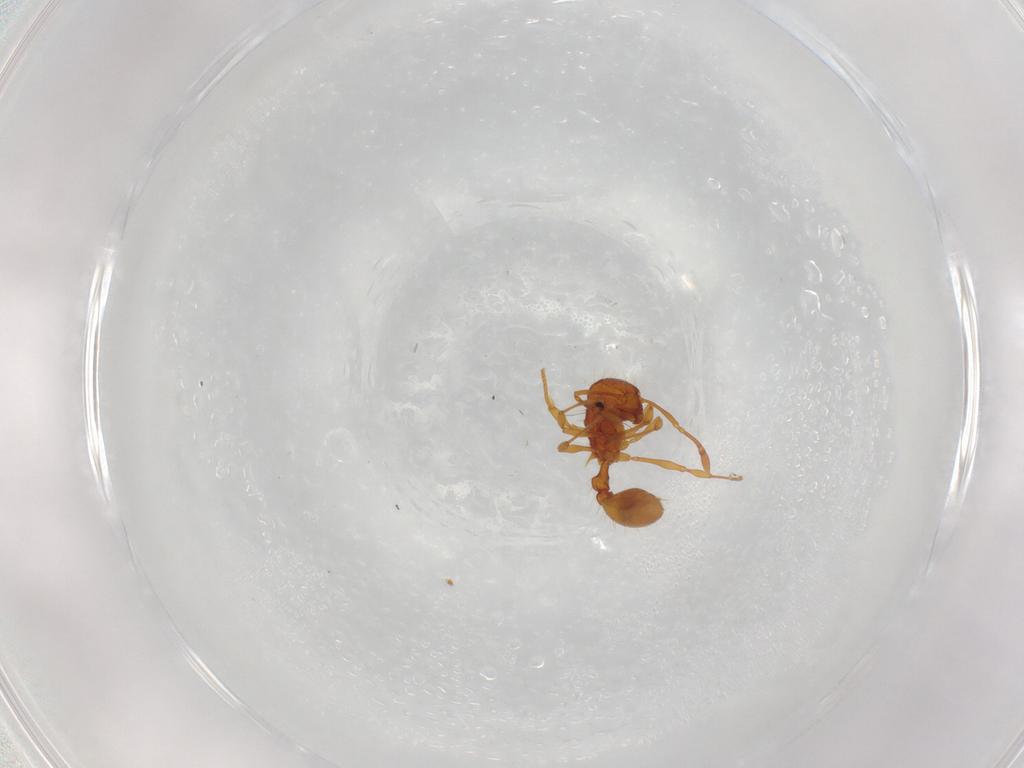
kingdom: Animalia
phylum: Arthropoda
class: Insecta
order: Hymenoptera
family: Formicidae
